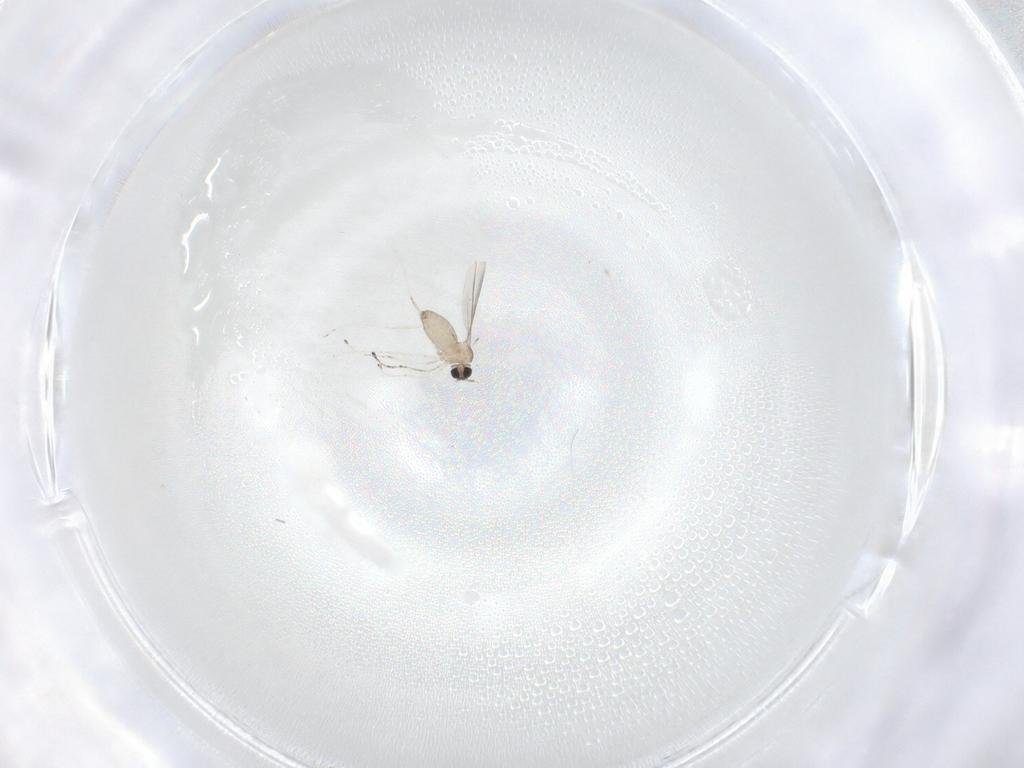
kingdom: Animalia
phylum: Arthropoda
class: Insecta
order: Diptera
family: Cecidomyiidae
